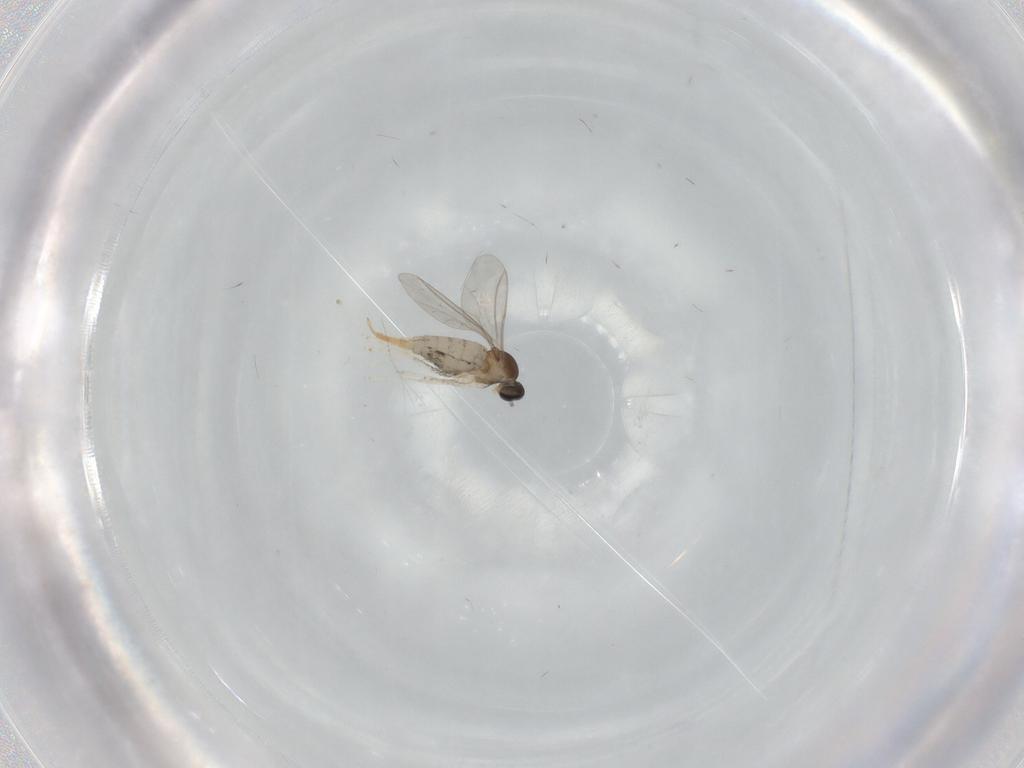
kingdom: Animalia
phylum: Arthropoda
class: Insecta
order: Diptera
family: Cecidomyiidae
